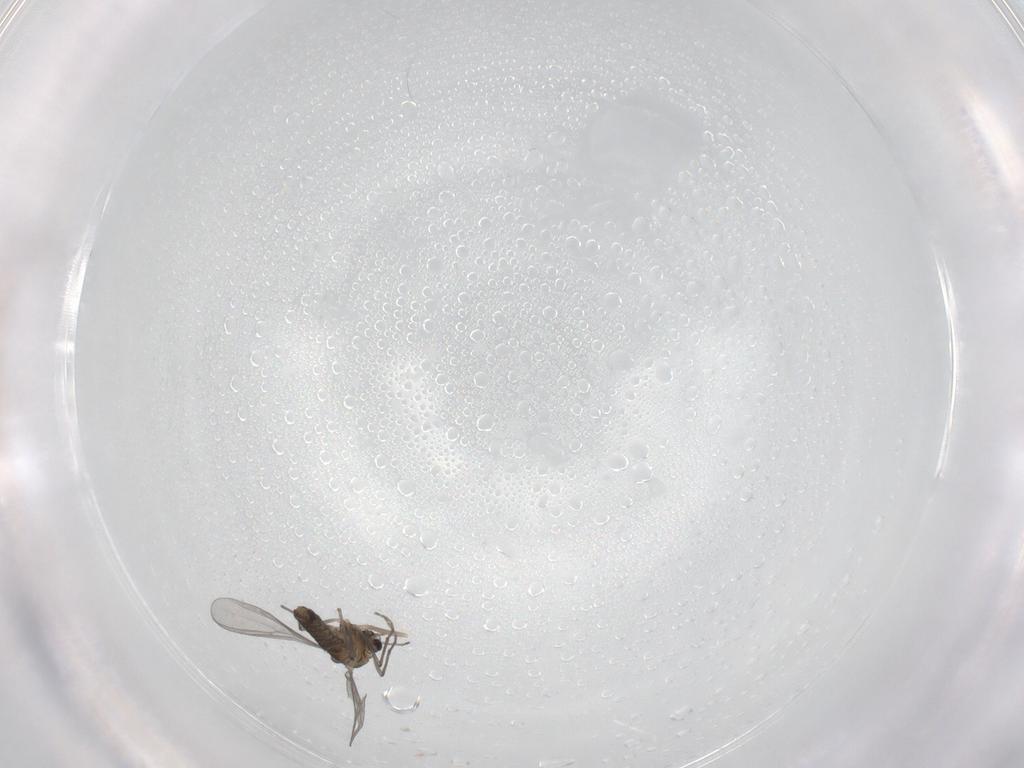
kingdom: Animalia
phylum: Arthropoda
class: Insecta
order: Diptera
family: Chironomidae
